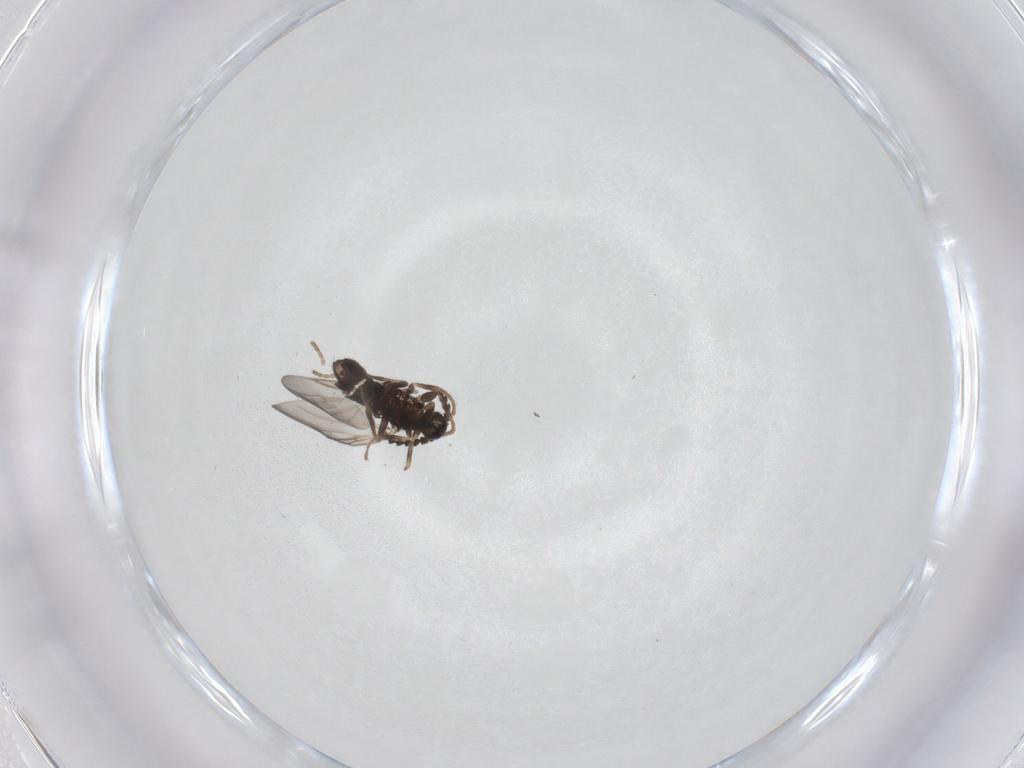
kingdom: Animalia
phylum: Arthropoda
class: Insecta
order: Diptera
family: Scatopsidae
